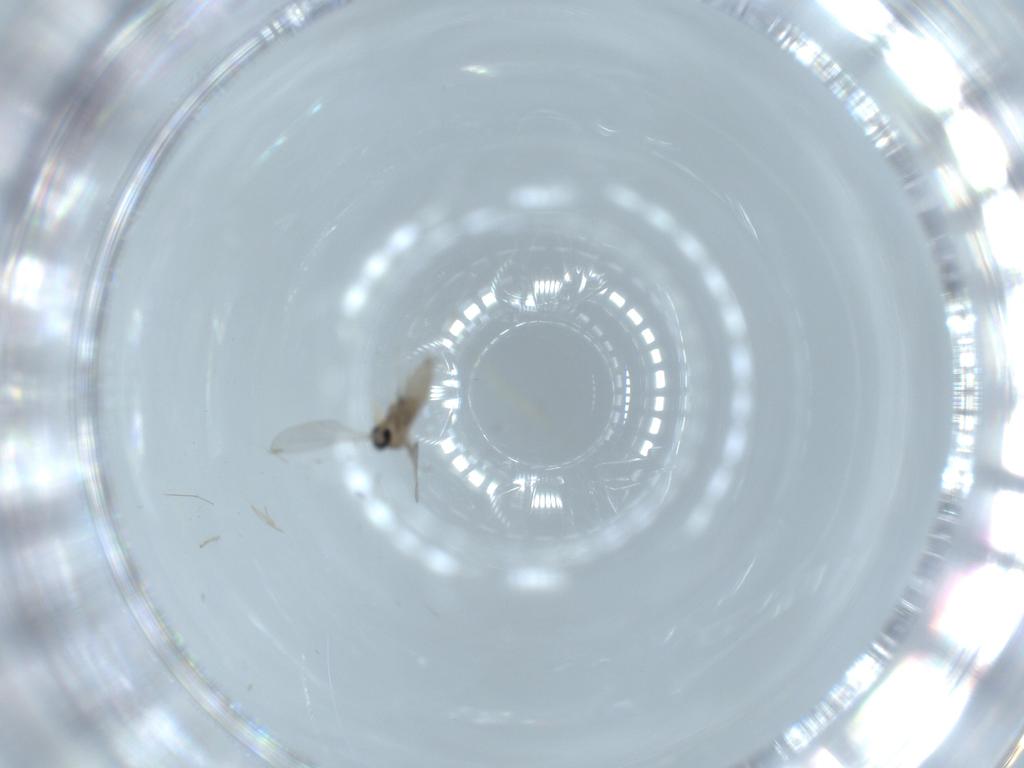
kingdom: Animalia
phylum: Arthropoda
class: Insecta
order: Diptera
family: Cecidomyiidae
